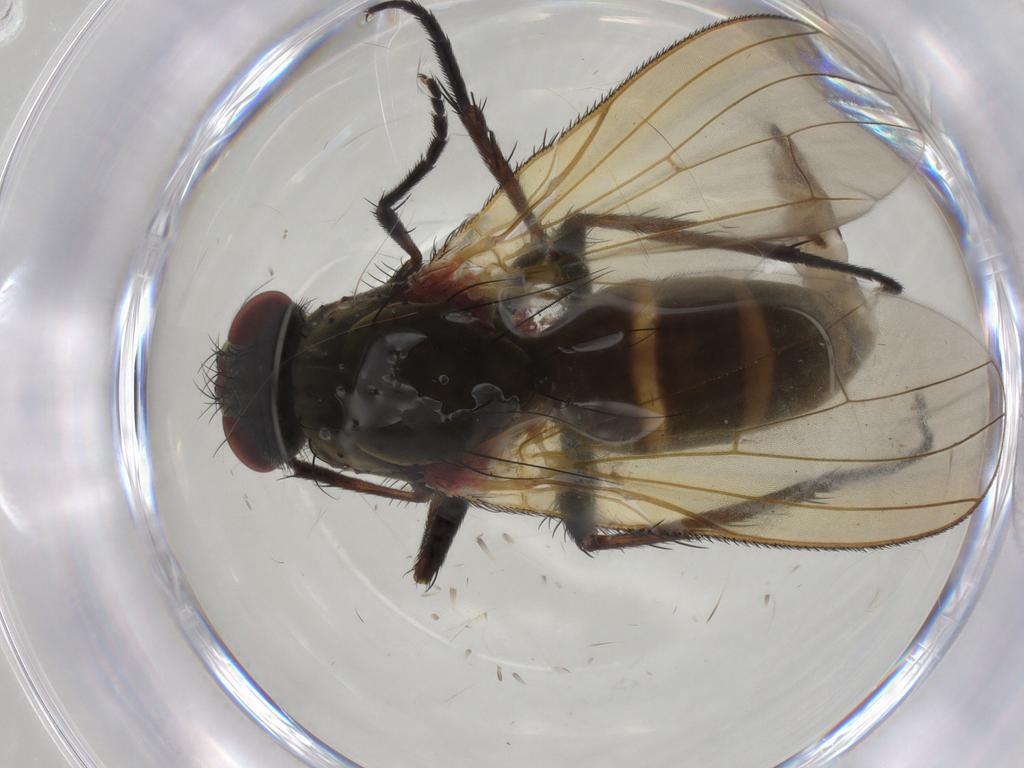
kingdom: Animalia
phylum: Arthropoda
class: Insecta
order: Diptera
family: Anthomyiidae
